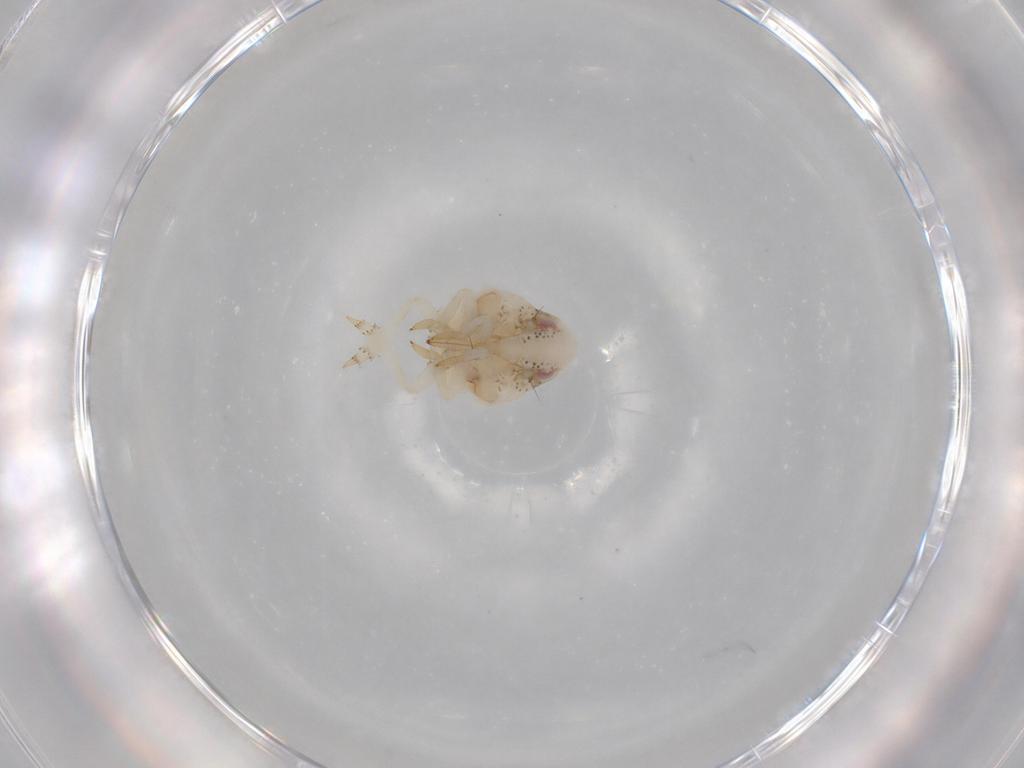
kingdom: Animalia
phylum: Arthropoda
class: Insecta
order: Hemiptera
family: Acanaloniidae
